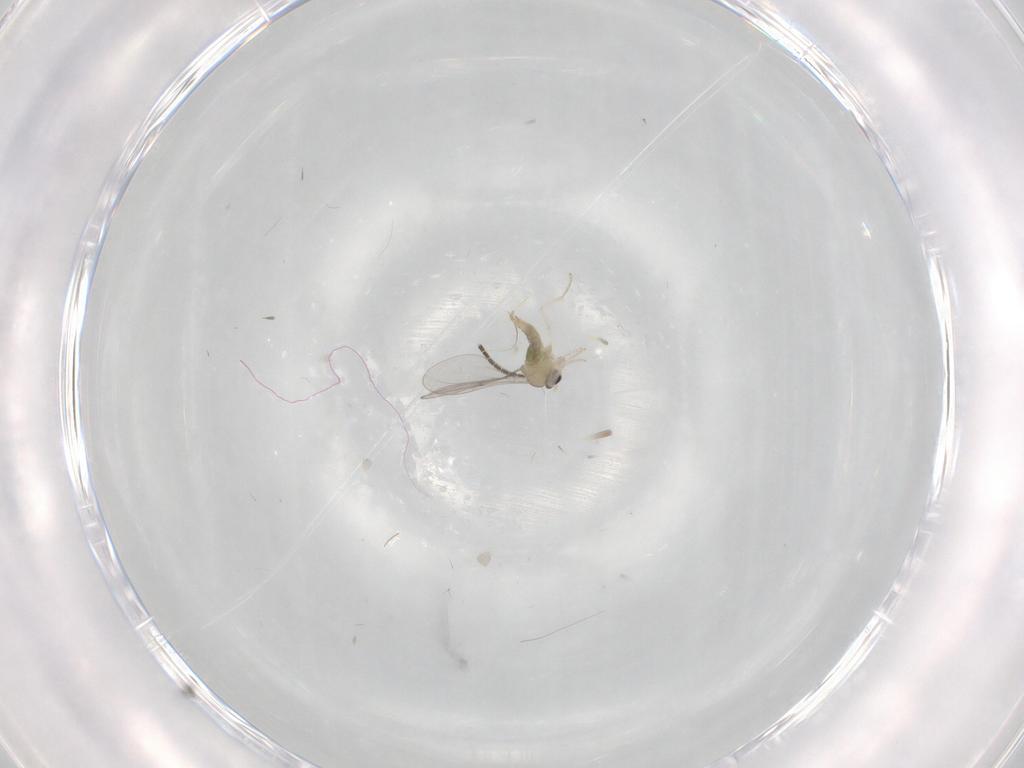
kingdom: Animalia
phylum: Arthropoda
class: Insecta
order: Diptera
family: Cecidomyiidae
